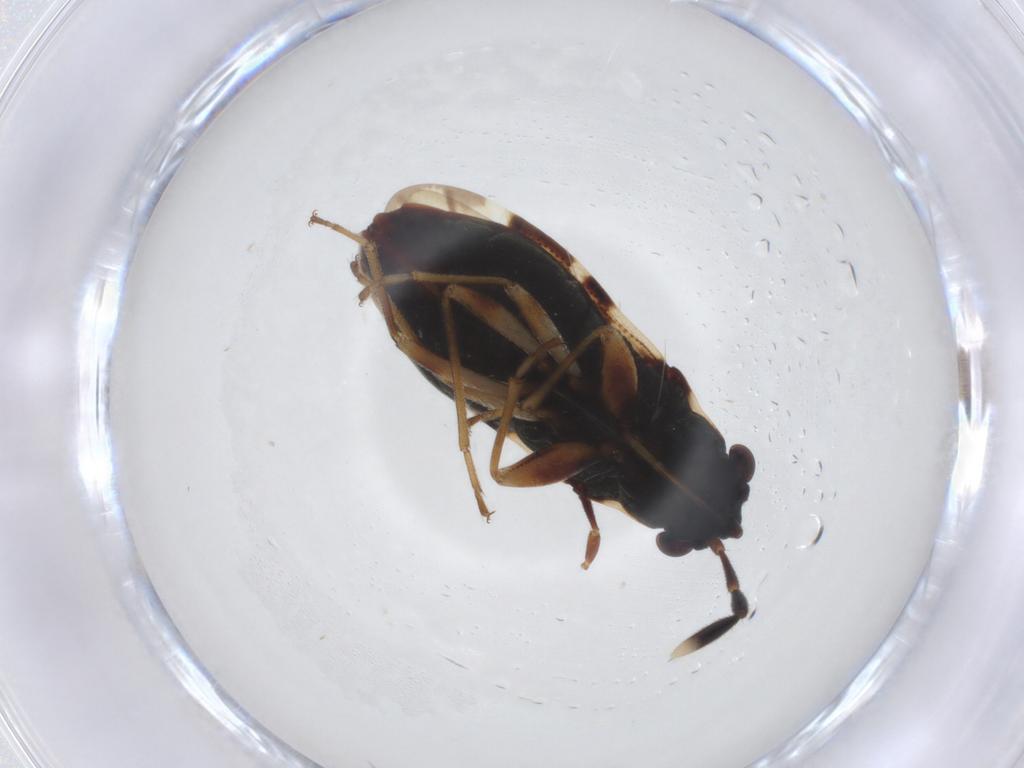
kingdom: Animalia
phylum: Arthropoda
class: Insecta
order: Hemiptera
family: Rhyparochromidae
